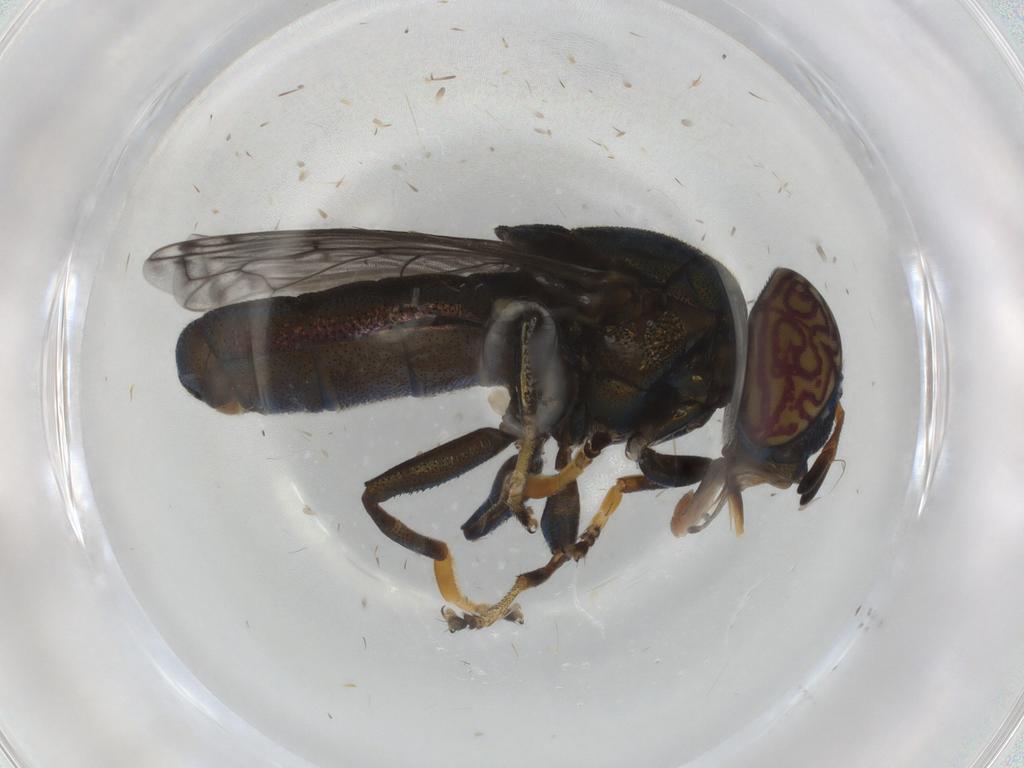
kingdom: Animalia
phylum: Arthropoda
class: Insecta
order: Diptera
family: Syrphidae
